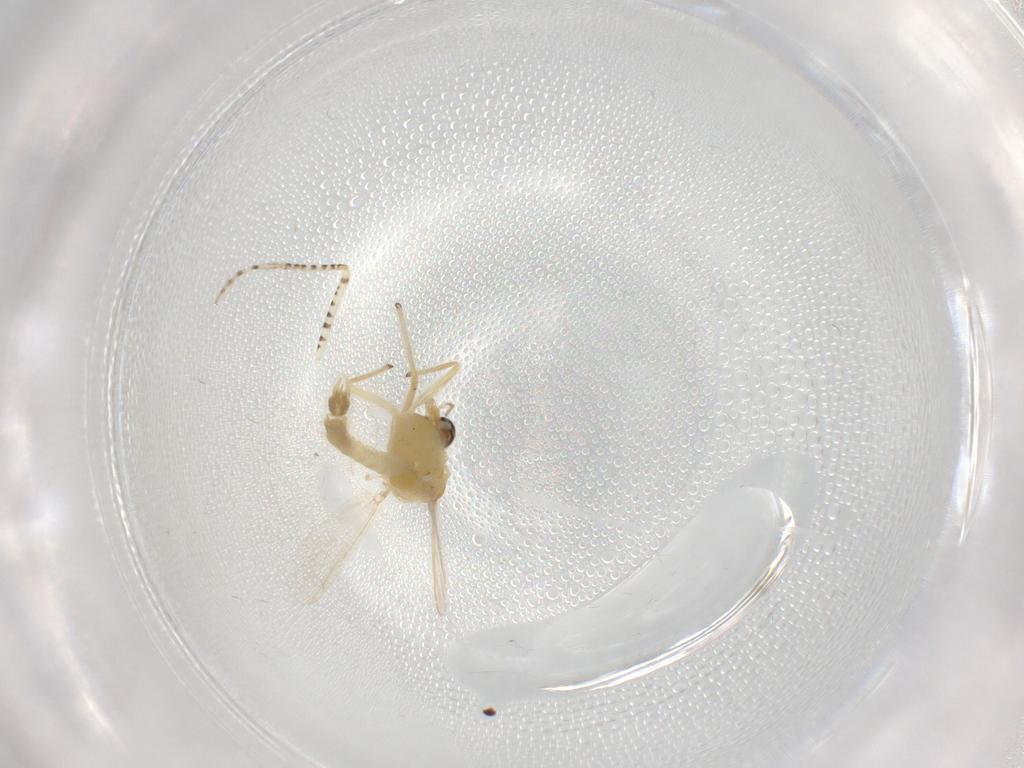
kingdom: Animalia
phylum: Arthropoda
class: Insecta
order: Diptera
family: Chironomidae
